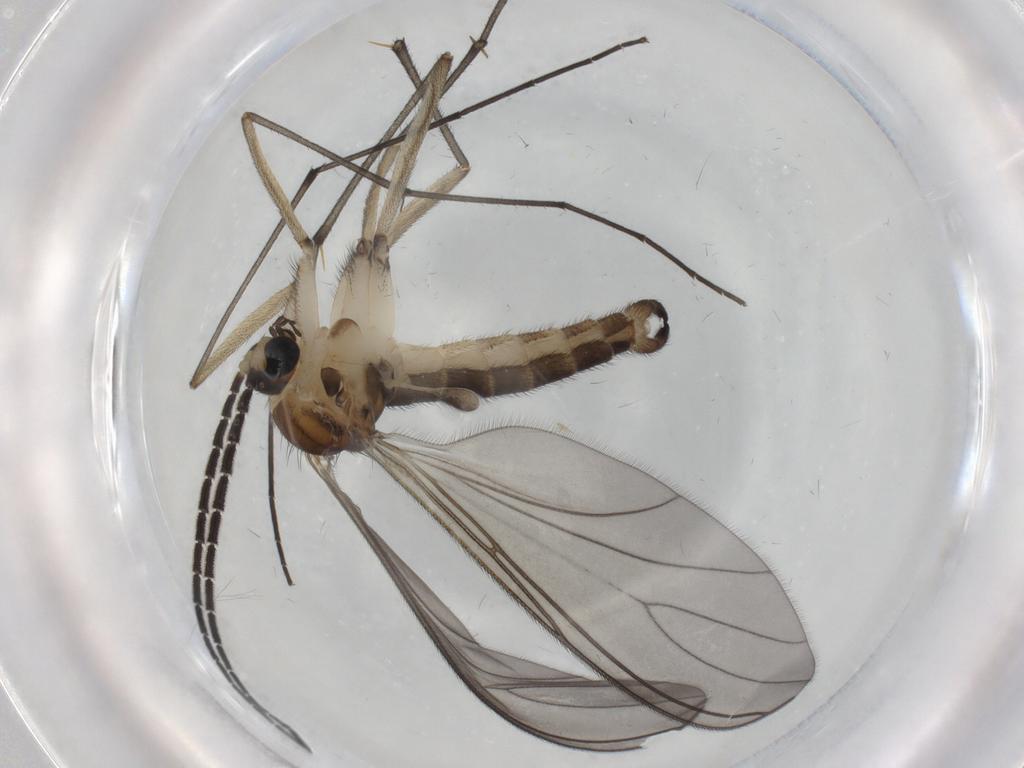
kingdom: Animalia
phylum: Arthropoda
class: Insecta
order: Diptera
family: Sciaridae
